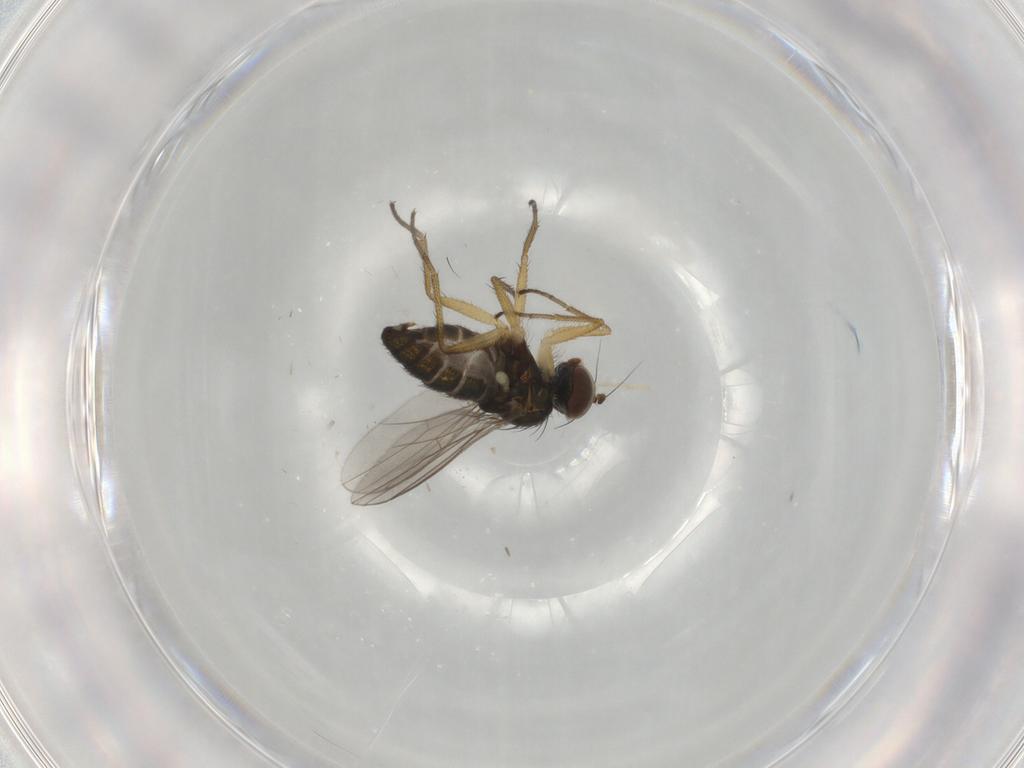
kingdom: Animalia
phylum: Arthropoda
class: Insecta
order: Diptera
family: Dolichopodidae
